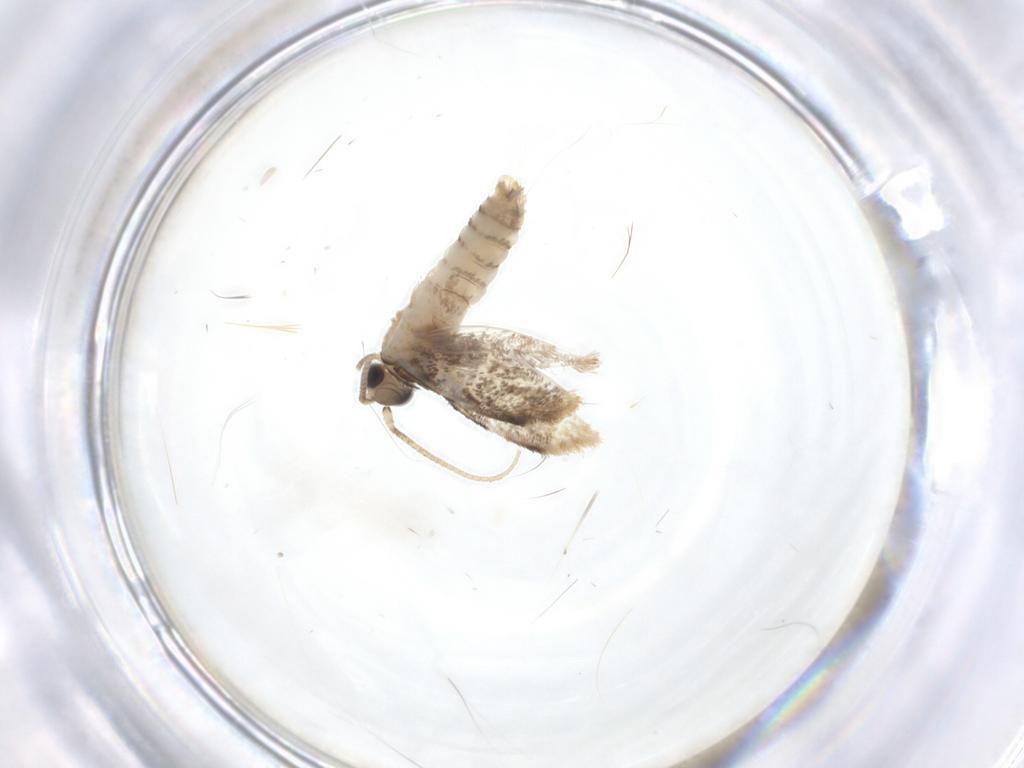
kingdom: Animalia
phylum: Arthropoda
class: Insecta
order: Lepidoptera
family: Dryadaulidae
